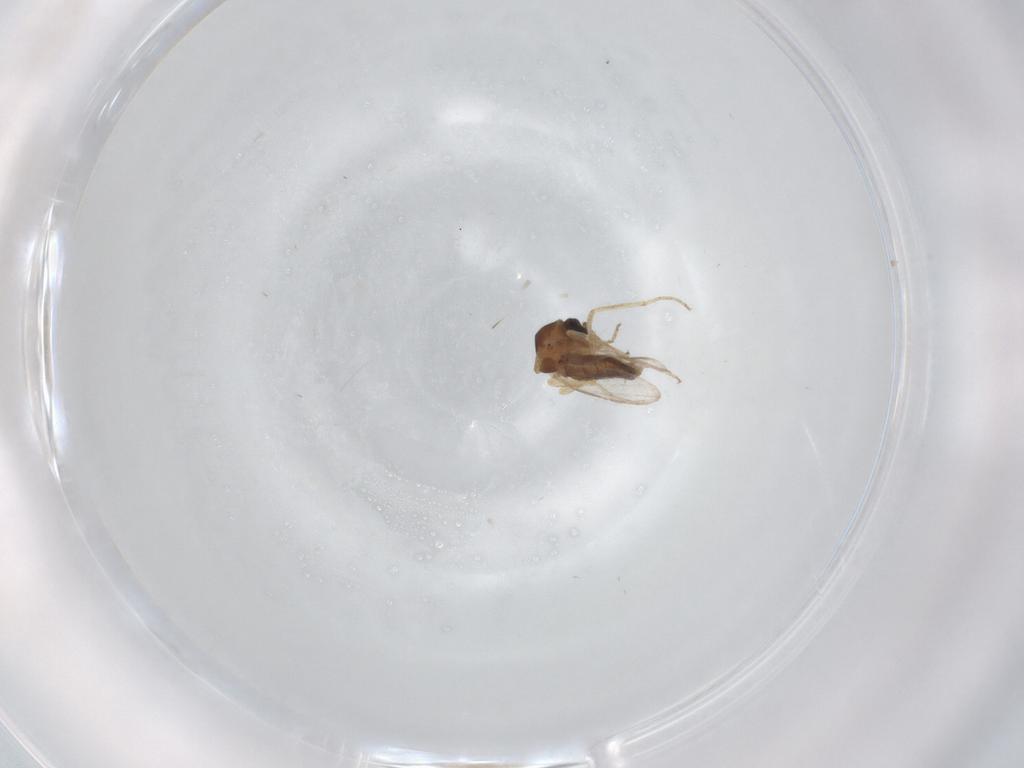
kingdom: Animalia
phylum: Arthropoda
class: Insecta
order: Diptera
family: Ceratopogonidae
